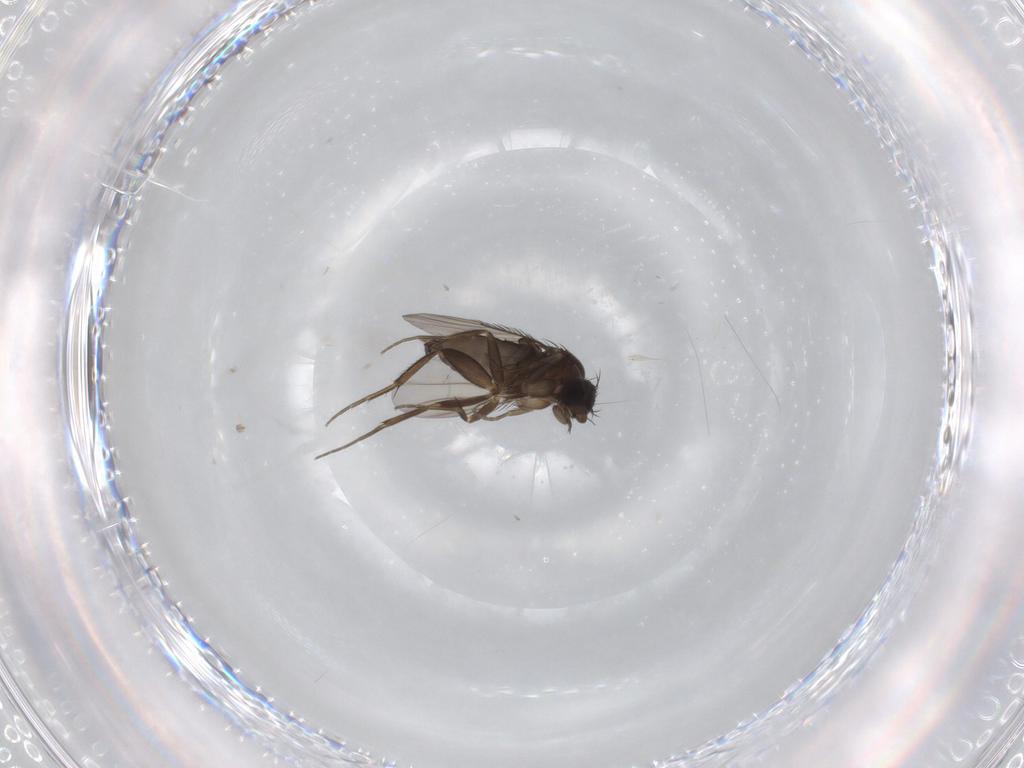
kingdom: Animalia
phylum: Arthropoda
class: Insecta
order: Diptera
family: Phoridae
